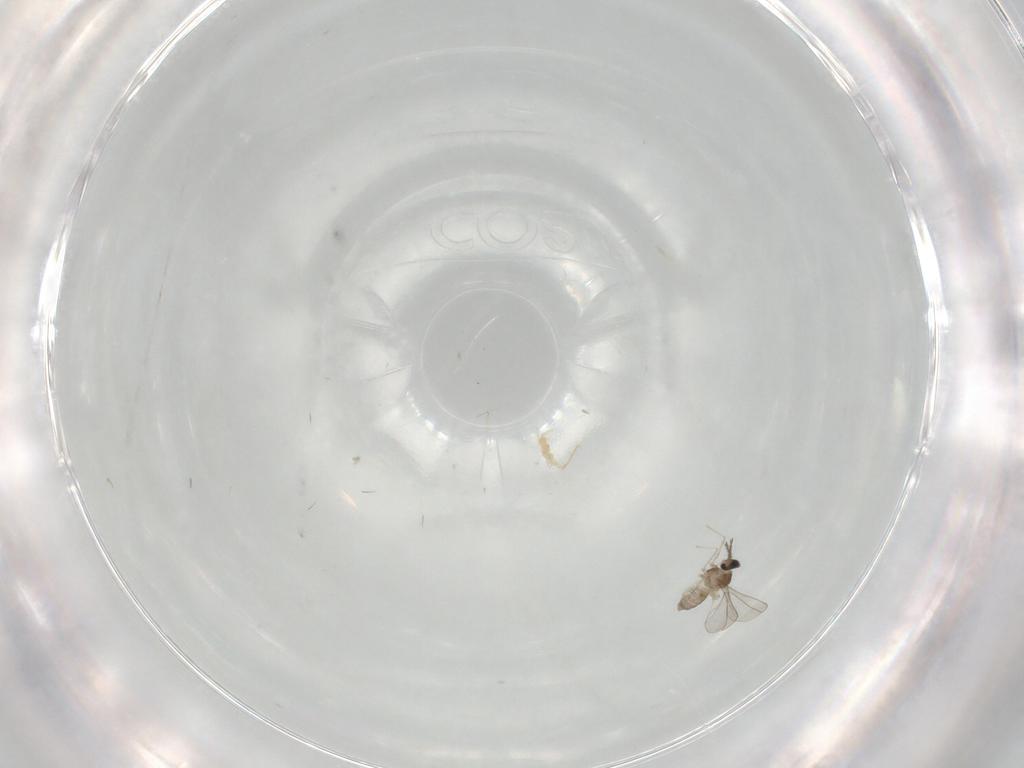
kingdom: Animalia
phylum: Arthropoda
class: Insecta
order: Diptera
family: Cecidomyiidae
